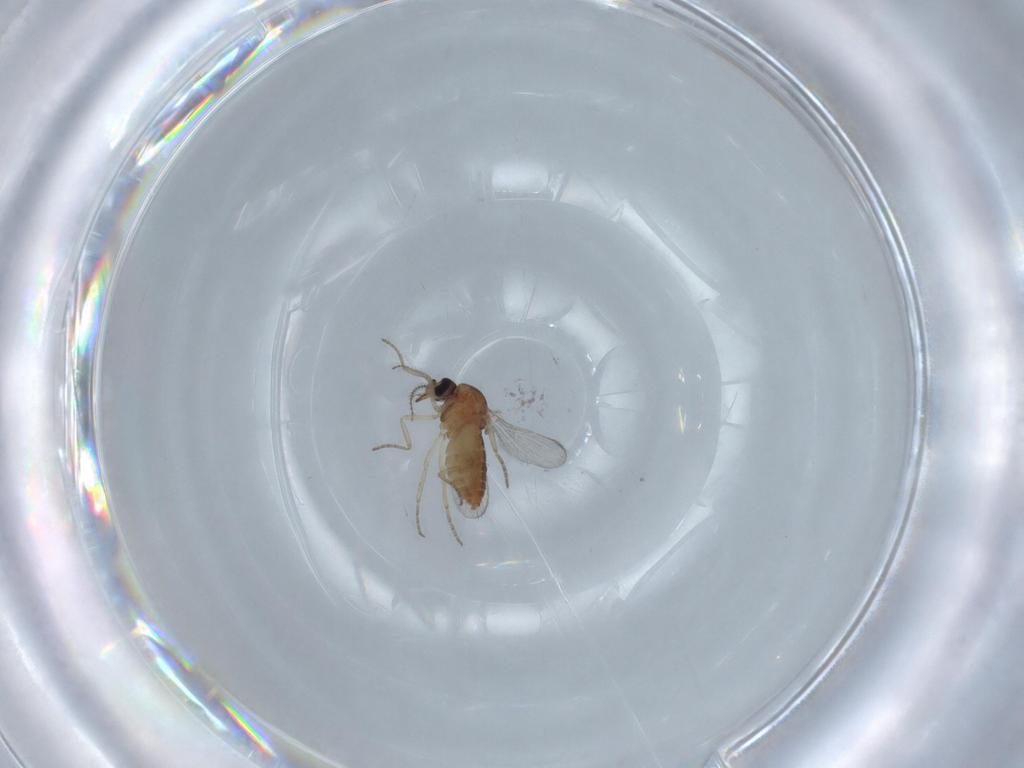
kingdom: Animalia
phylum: Arthropoda
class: Insecta
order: Diptera
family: Ceratopogonidae
